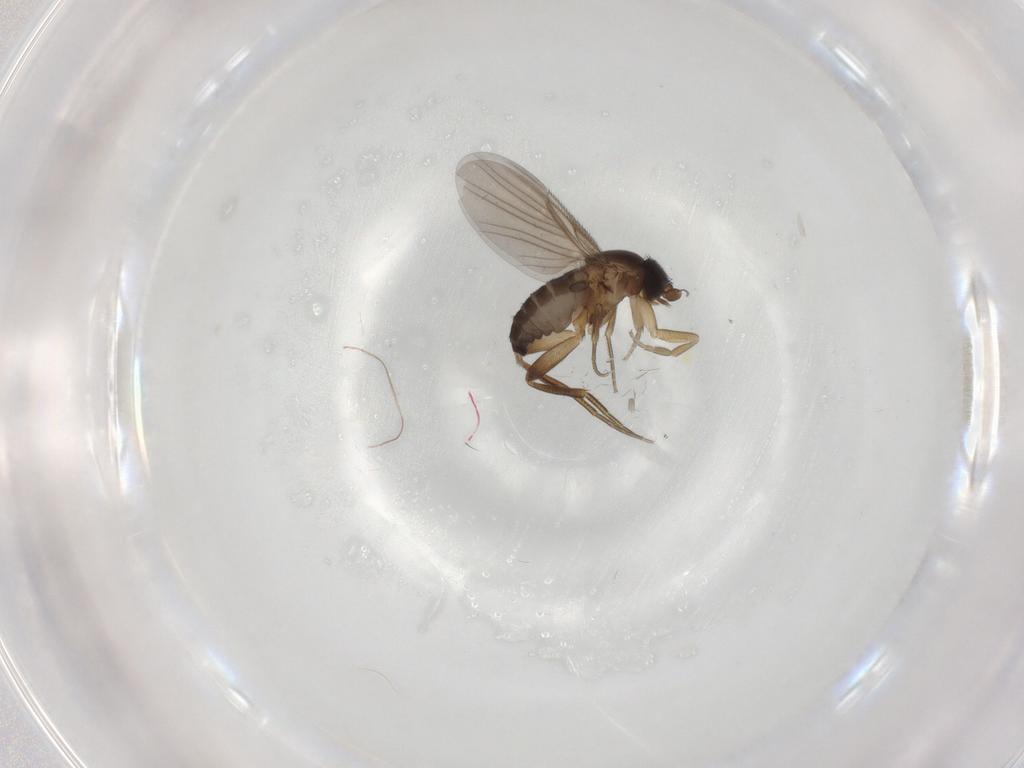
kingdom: Animalia
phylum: Arthropoda
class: Insecta
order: Diptera
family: Phoridae
